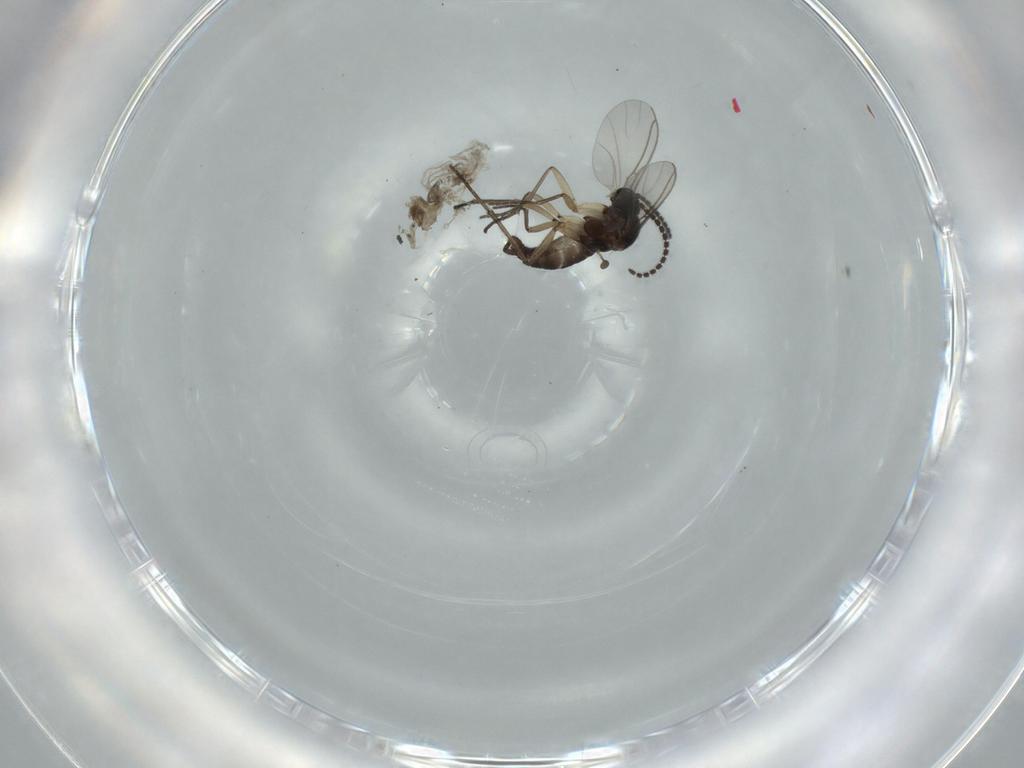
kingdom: Animalia
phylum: Arthropoda
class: Insecta
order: Diptera
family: Cecidomyiidae
